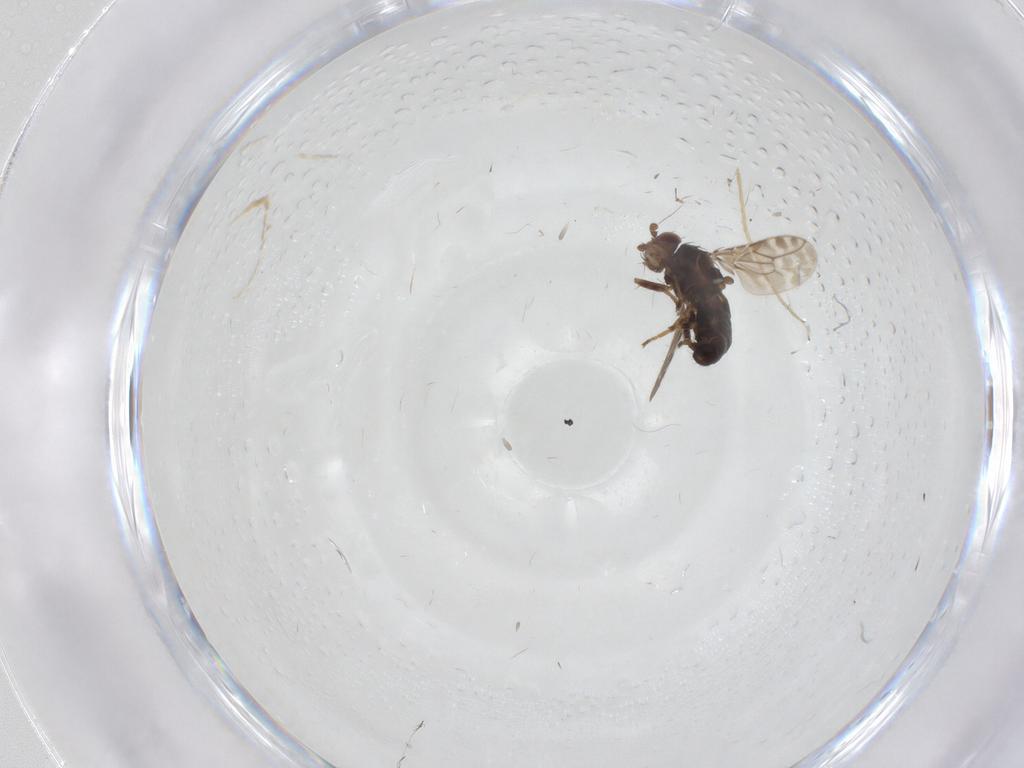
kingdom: Animalia
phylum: Arthropoda
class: Insecta
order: Diptera
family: Sphaeroceridae
